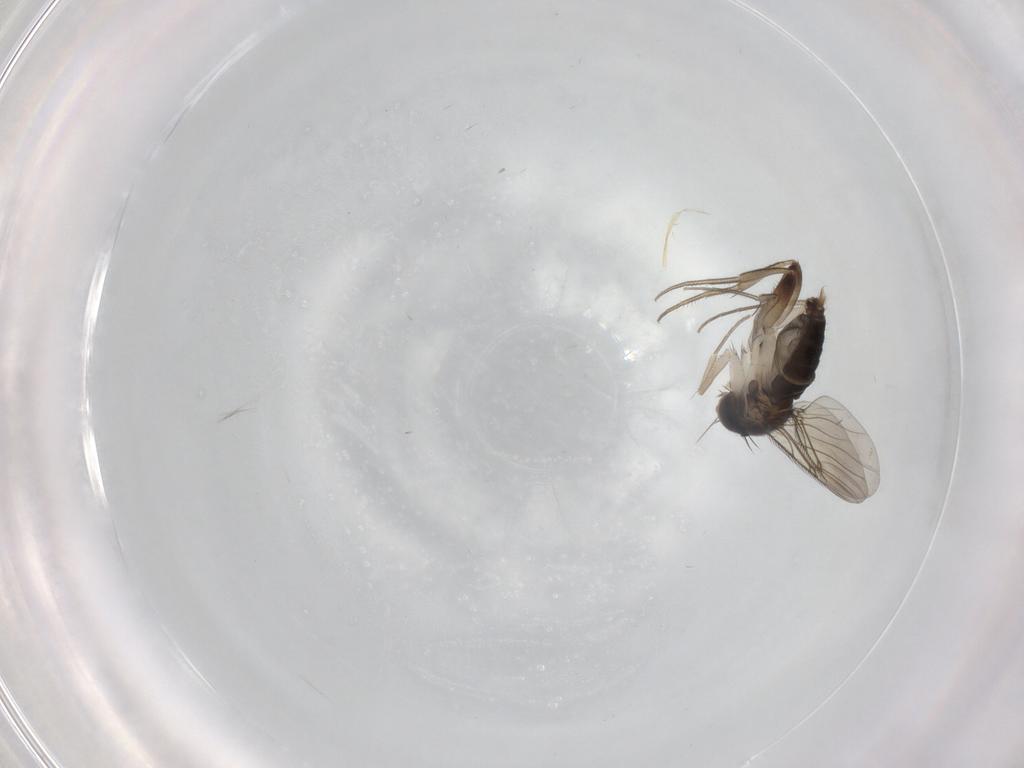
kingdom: Animalia
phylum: Arthropoda
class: Insecta
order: Diptera
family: Phoridae
